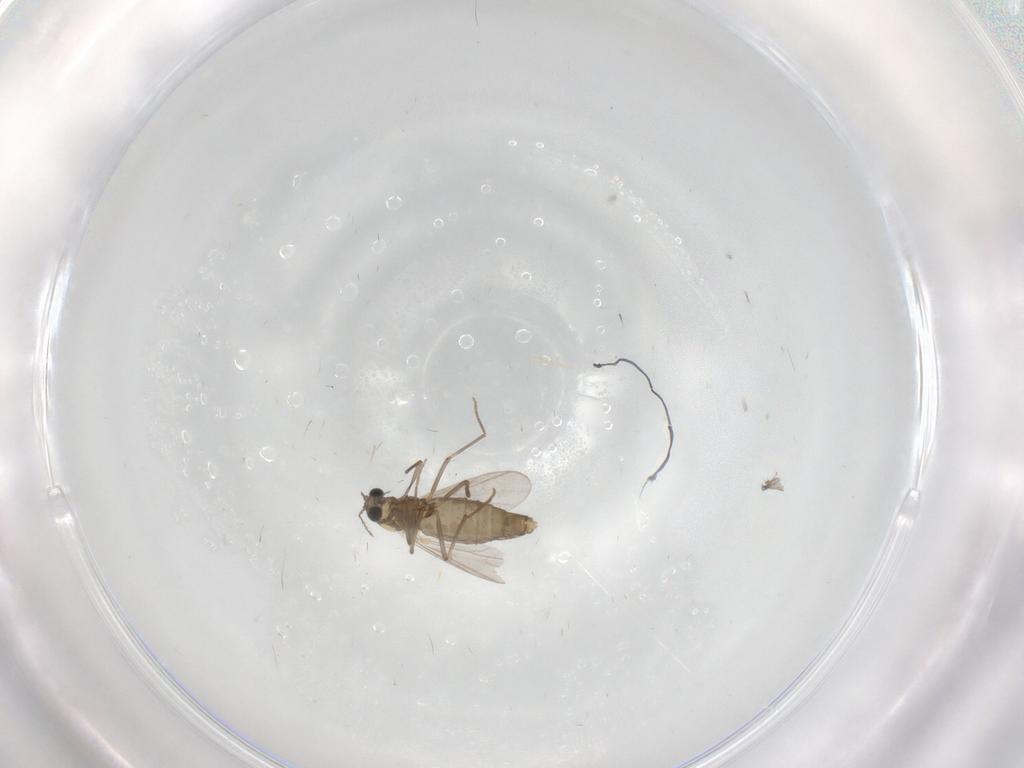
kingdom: Animalia
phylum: Arthropoda
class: Insecta
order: Diptera
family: Psychodidae
